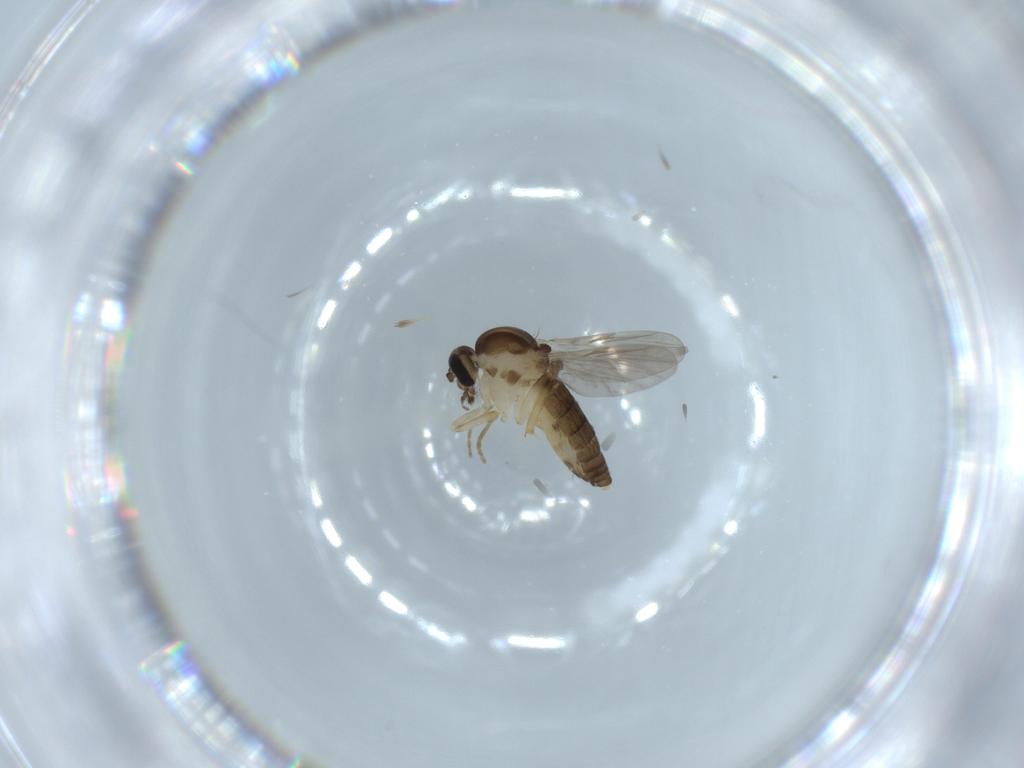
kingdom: Animalia
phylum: Arthropoda
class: Insecta
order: Diptera
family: Ceratopogonidae
